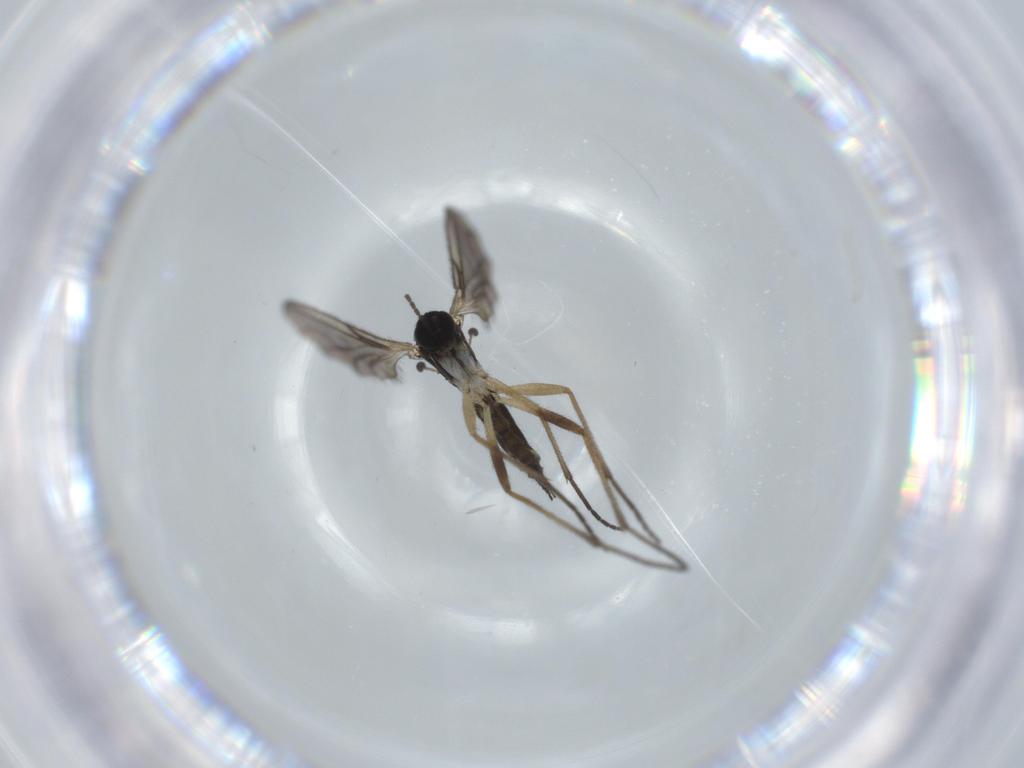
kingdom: Animalia
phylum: Arthropoda
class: Insecta
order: Diptera
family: Sciaridae
